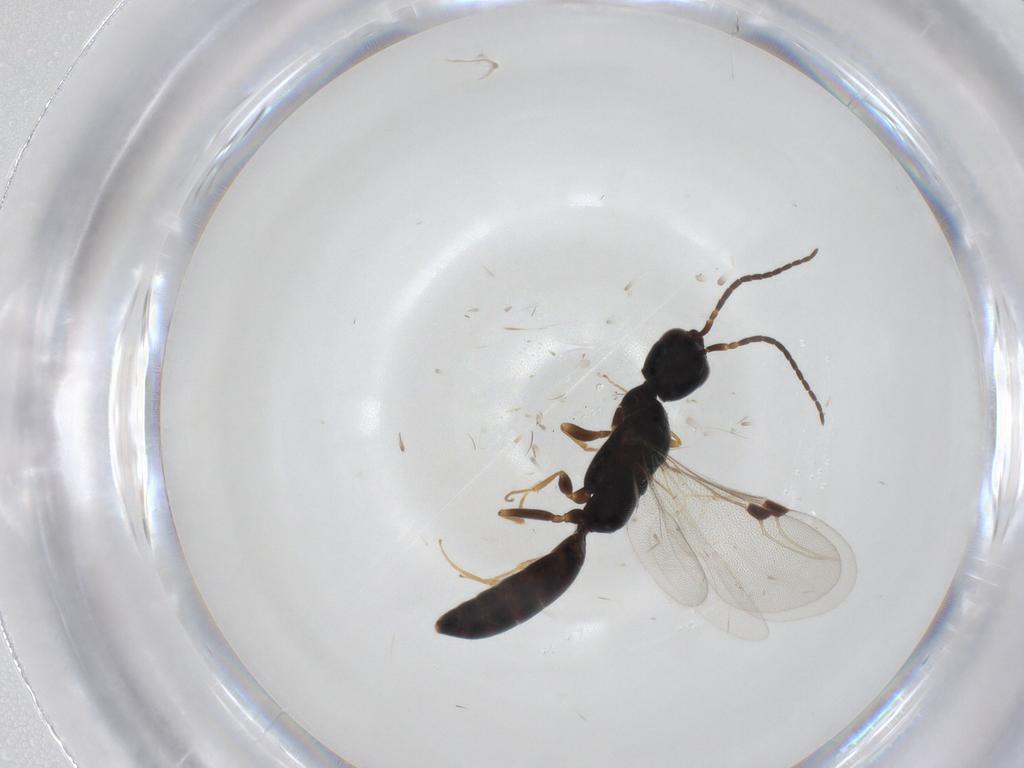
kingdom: Animalia
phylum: Arthropoda
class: Insecta
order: Hymenoptera
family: Bethylidae
